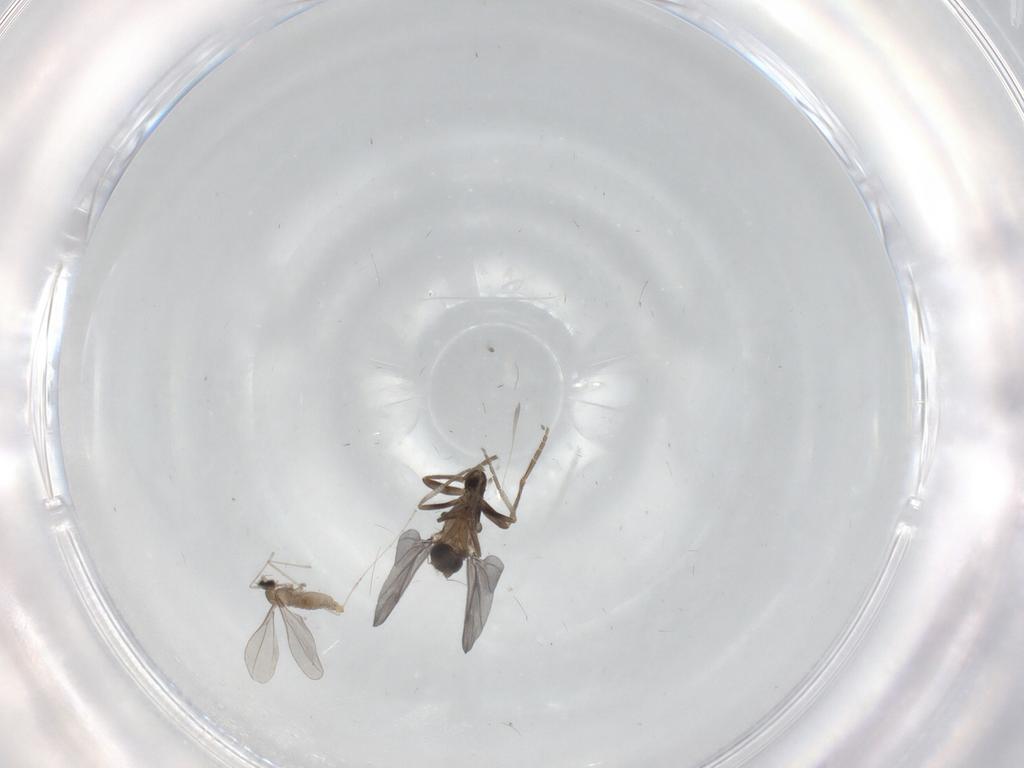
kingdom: Animalia
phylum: Arthropoda
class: Insecta
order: Diptera
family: Phoridae
